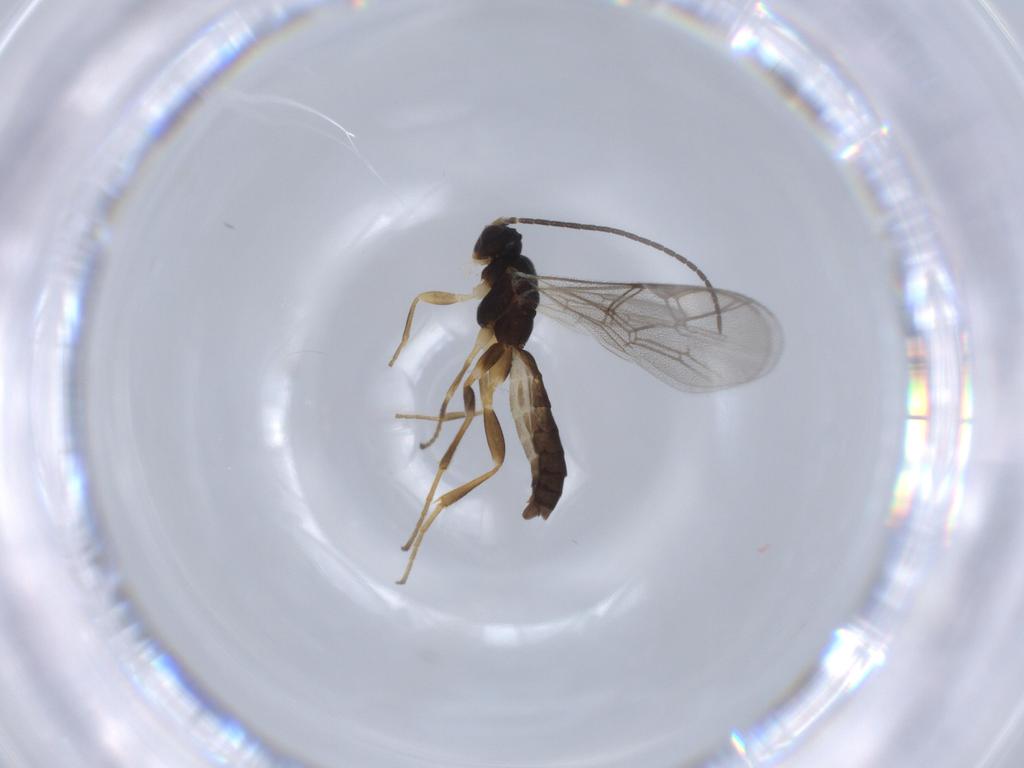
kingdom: Animalia
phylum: Arthropoda
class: Insecta
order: Hymenoptera
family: Ichneumonidae
